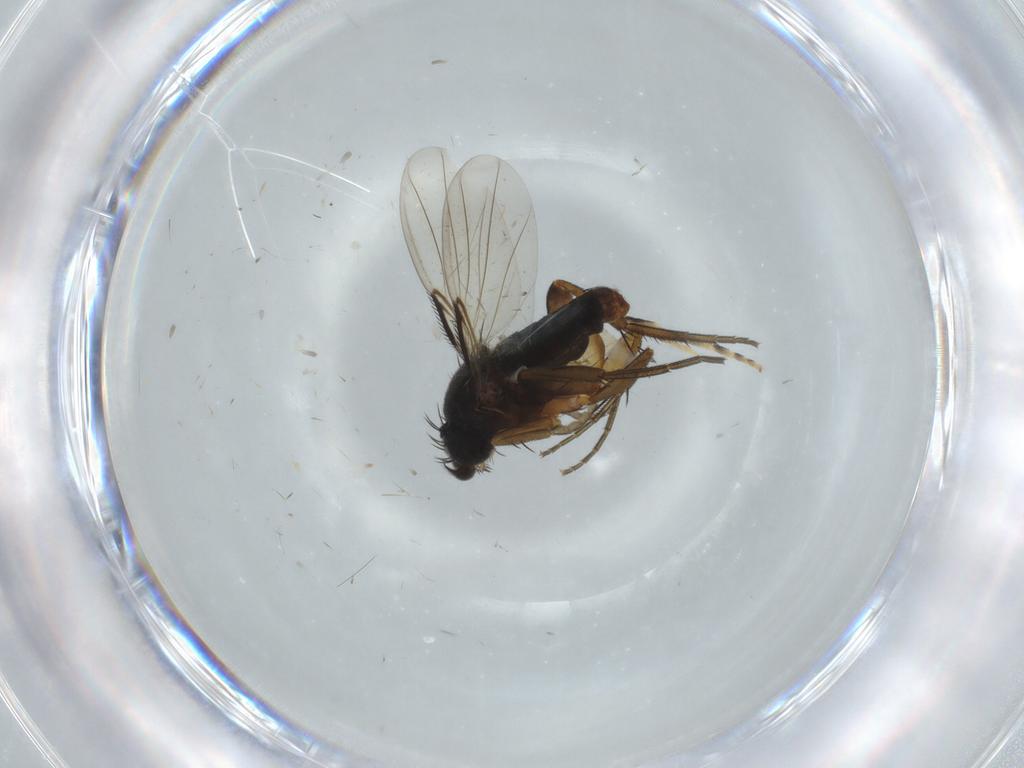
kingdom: Animalia
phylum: Arthropoda
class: Insecta
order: Diptera
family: Phoridae
